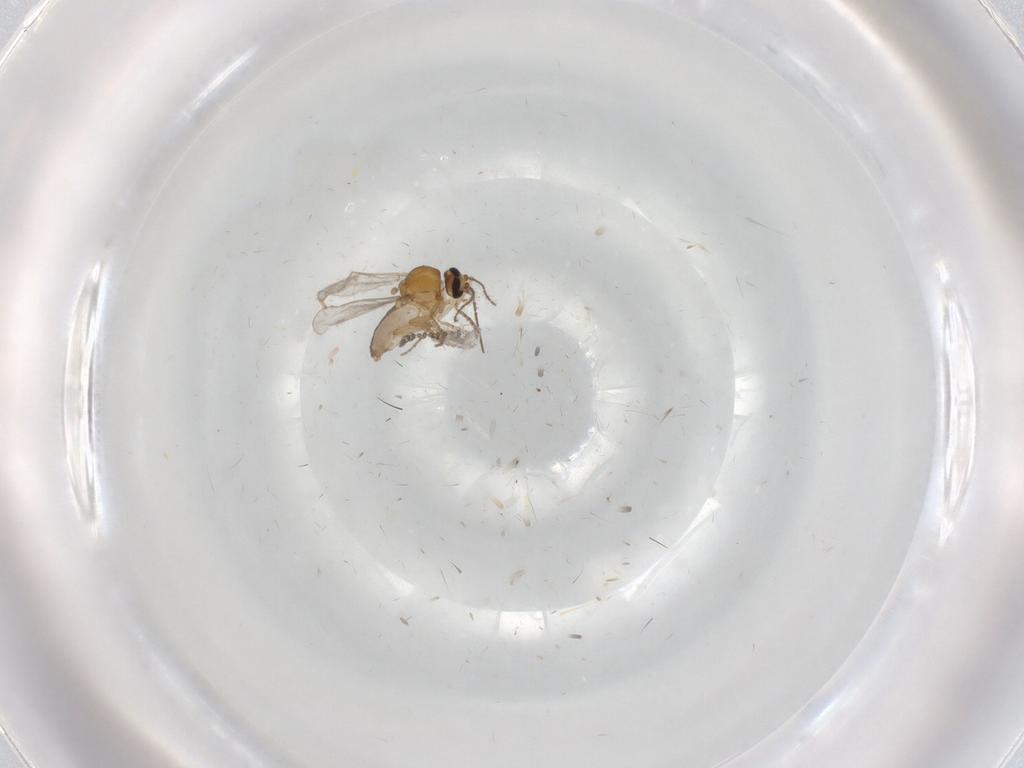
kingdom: Animalia
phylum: Arthropoda
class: Insecta
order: Diptera
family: Psychodidae
